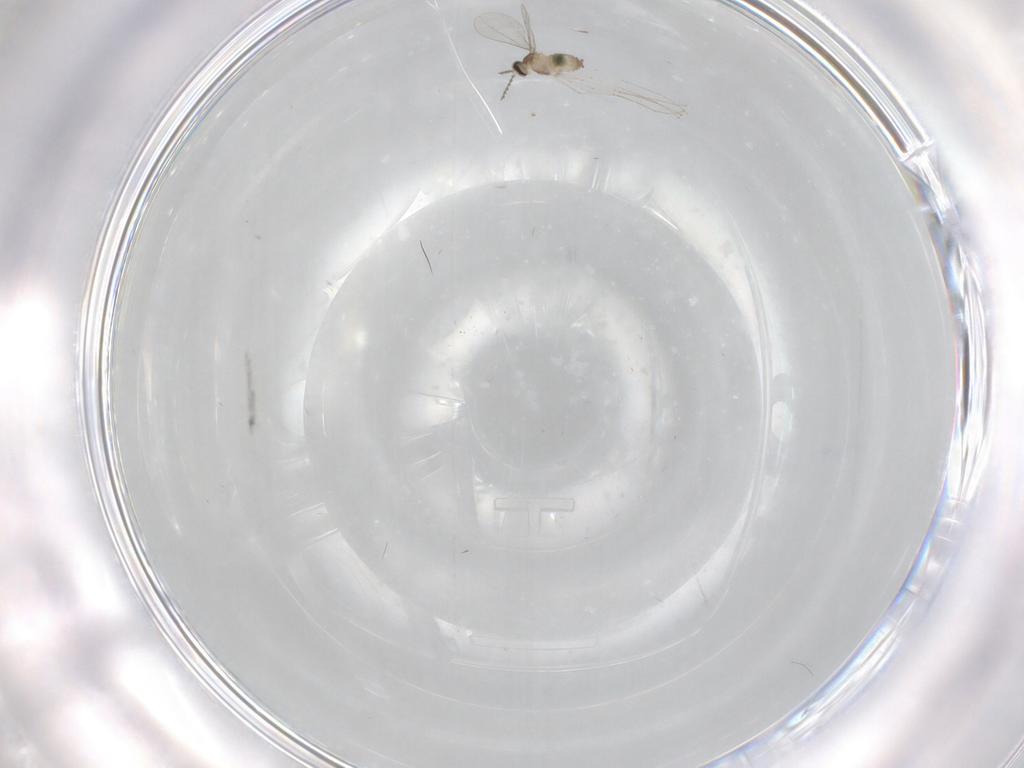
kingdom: Animalia
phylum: Arthropoda
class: Insecta
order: Diptera
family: Cecidomyiidae
